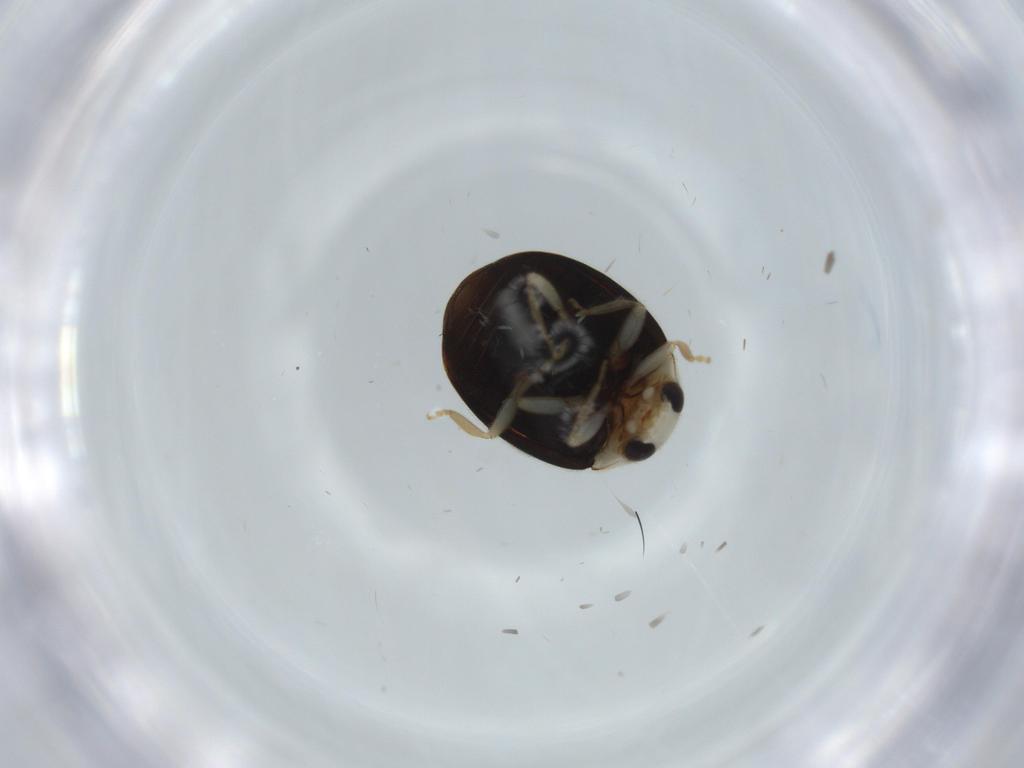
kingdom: Animalia
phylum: Arthropoda
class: Insecta
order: Coleoptera
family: Coccinellidae
